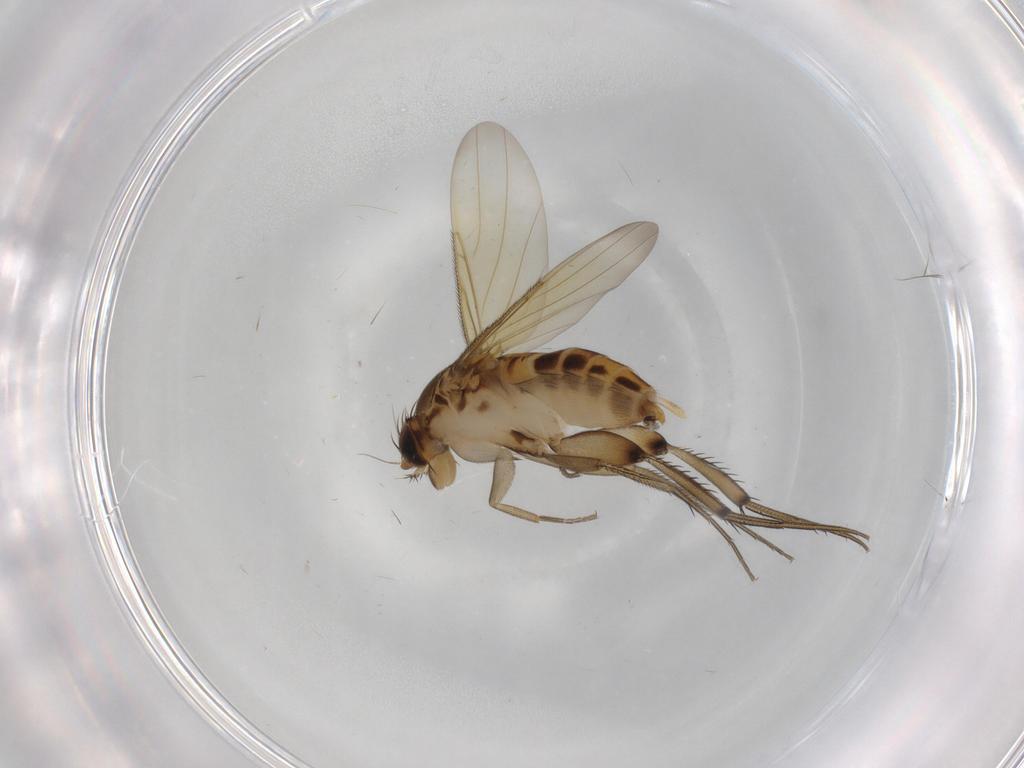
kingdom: Animalia
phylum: Arthropoda
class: Insecta
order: Diptera
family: Phoridae
